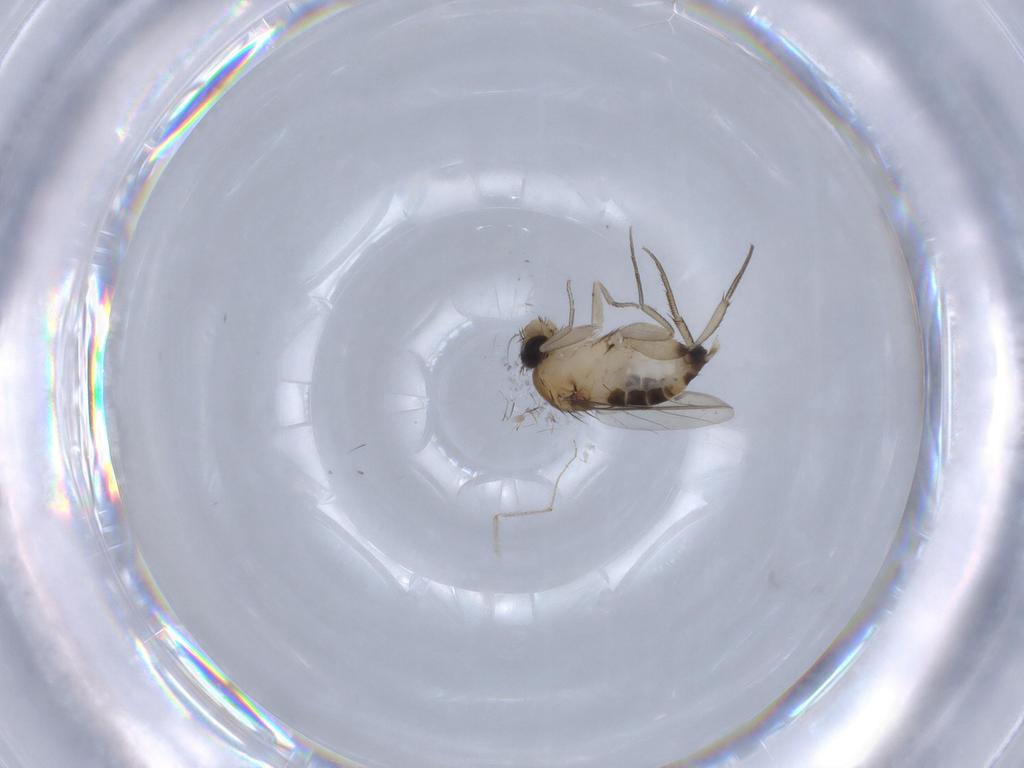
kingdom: Animalia
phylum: Arthropoda
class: Insecta
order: Diptera
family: Phoridae
